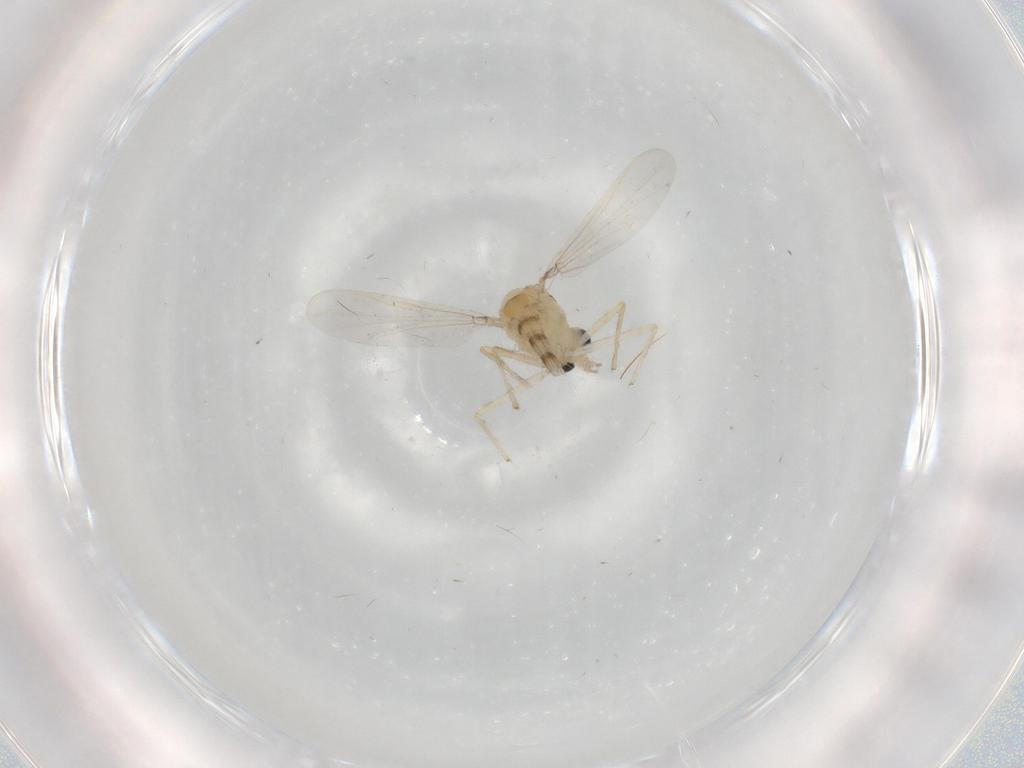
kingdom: Animalia
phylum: Arthropoda
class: Insecta
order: Diptera
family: Chironomidae
